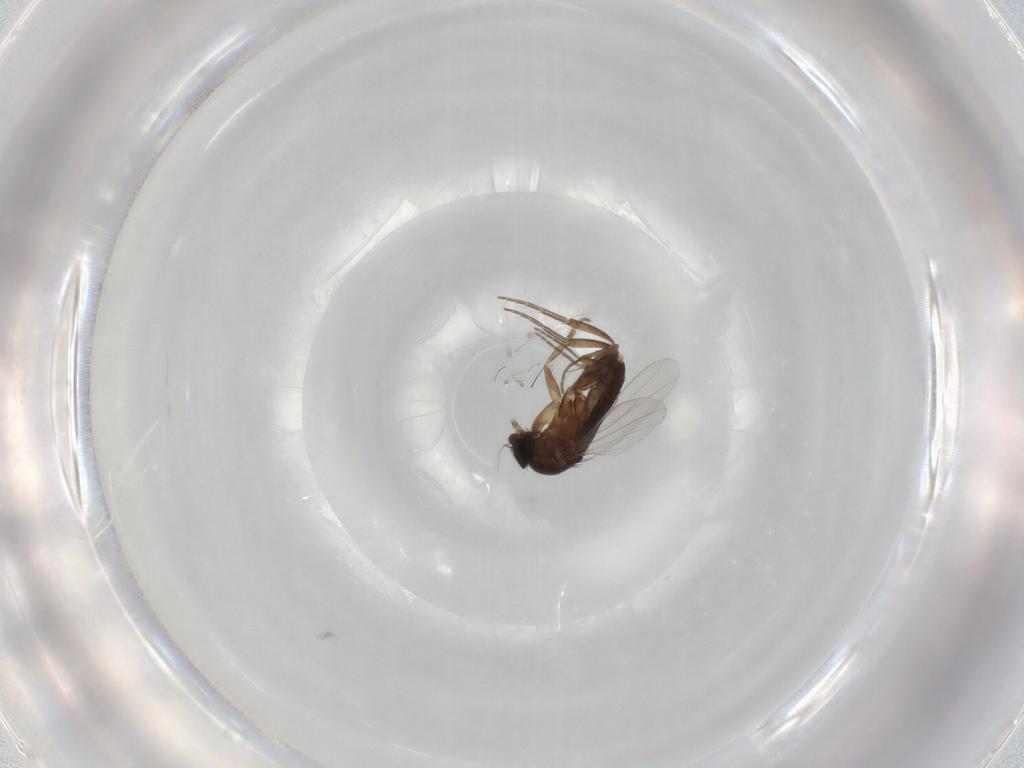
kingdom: Animalia
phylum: Arthropoda
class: Insecta
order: Diptera
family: Phoridae
